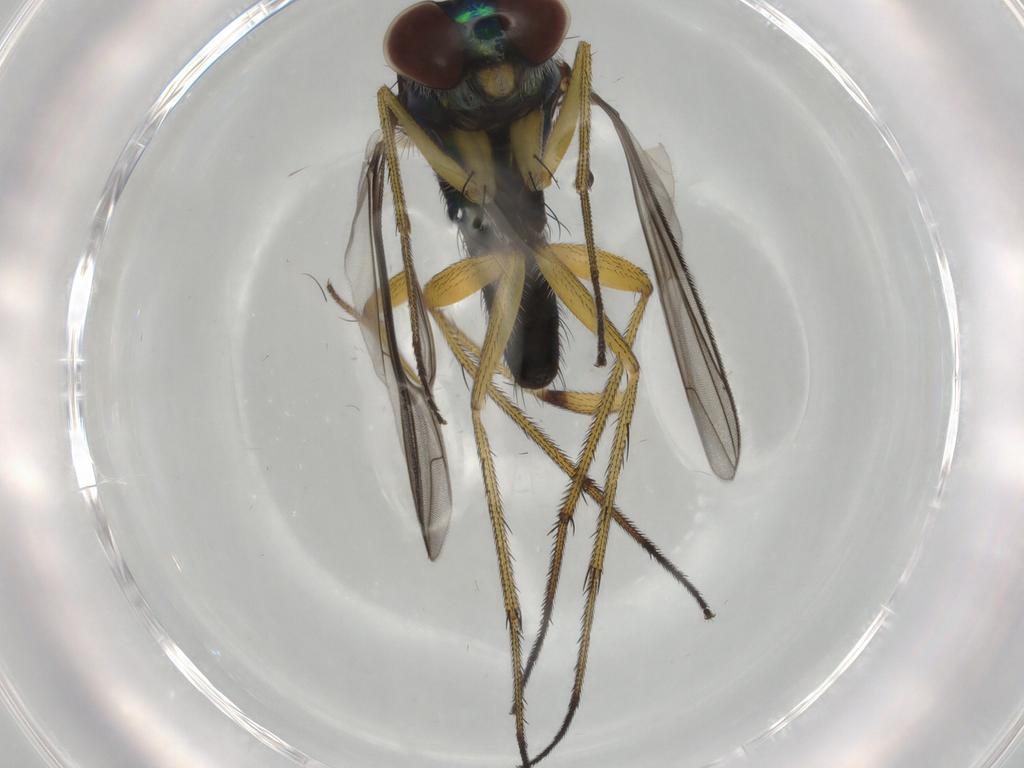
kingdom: Animalia
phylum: Arthropoda
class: Insecta
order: Diptera
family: Dolichopodidae
